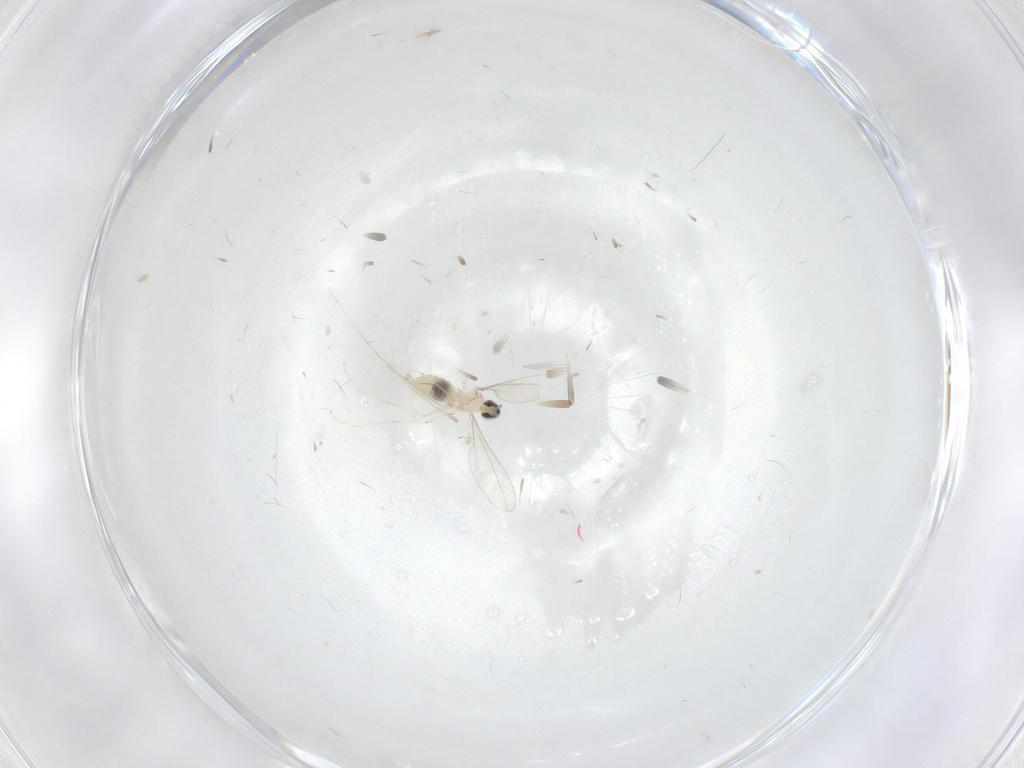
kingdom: Animalia
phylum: Arthropoda
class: Insecta
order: Diptera
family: Cecidomyiidae
